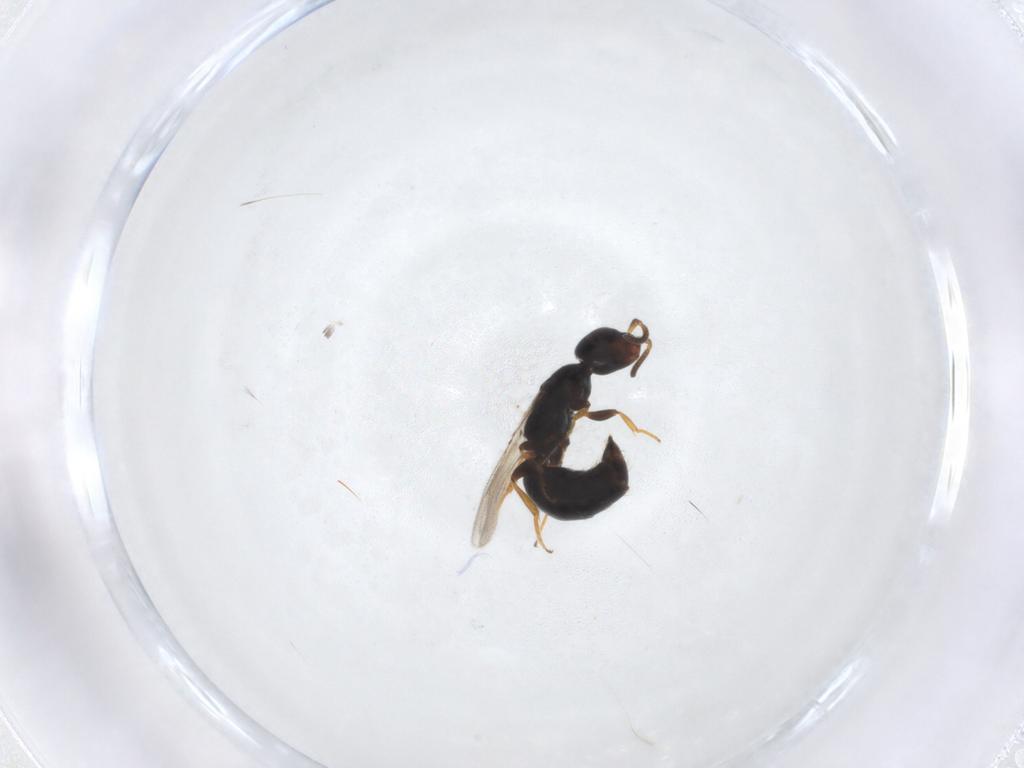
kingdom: Animalia
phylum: Arthropoda
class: Insecta
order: Hymenoptera
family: Bethylidae
